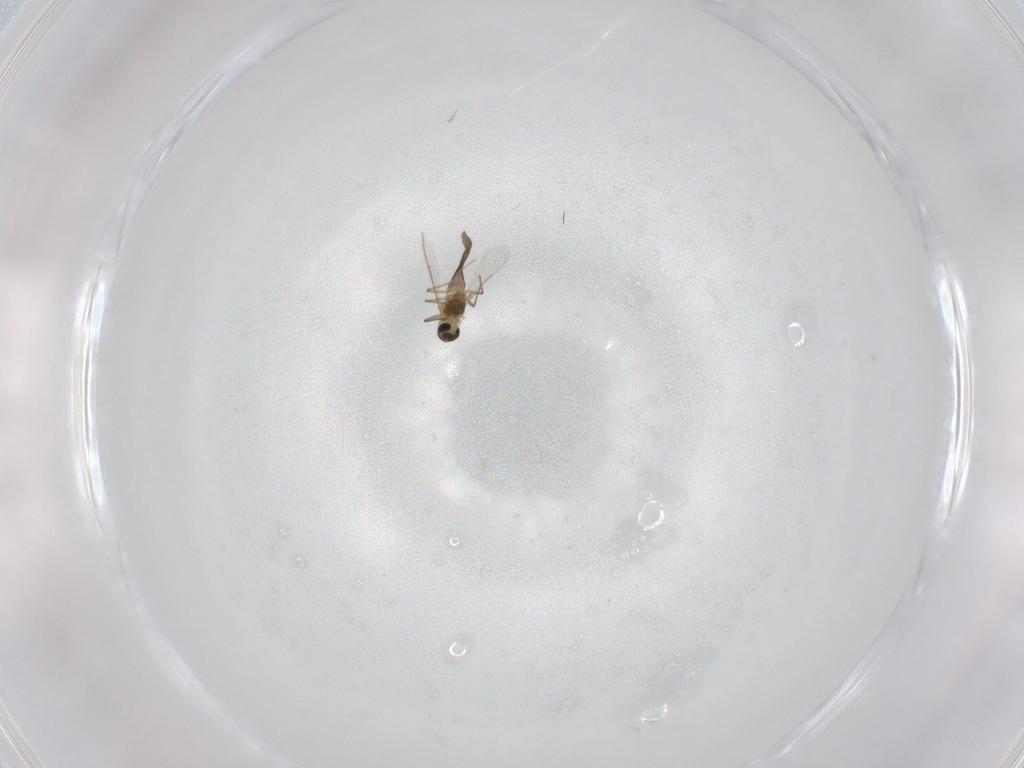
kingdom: Animalia
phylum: Arthropoda
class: Insecta
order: Diptera
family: Chironomidae
